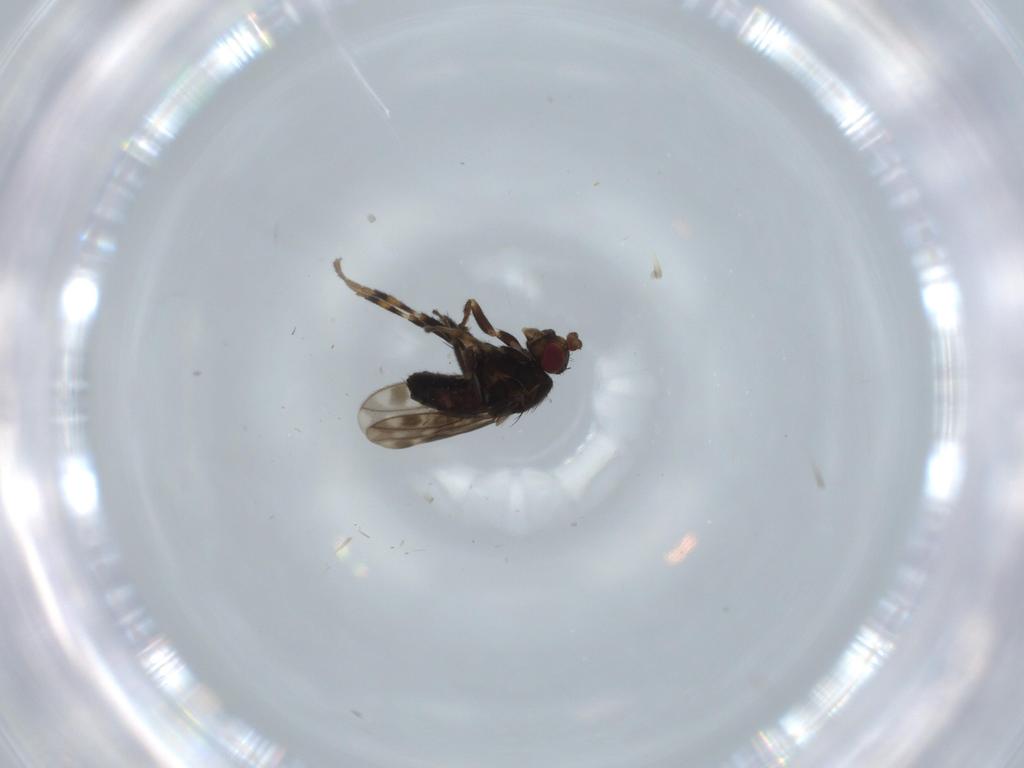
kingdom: Animalia
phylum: Arthropoda
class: Insecta
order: Diptera
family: Sphaeroceridae
